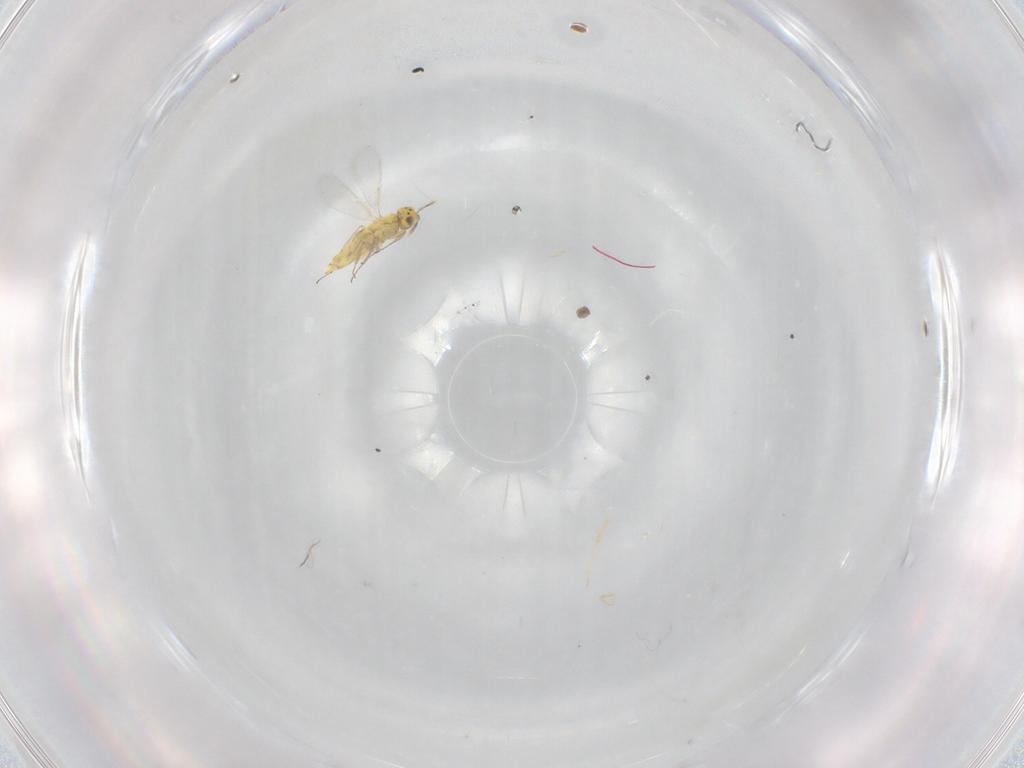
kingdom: Animalia
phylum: Arthropoda
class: Insecta
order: Hymenoptera
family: Aphelinidae
